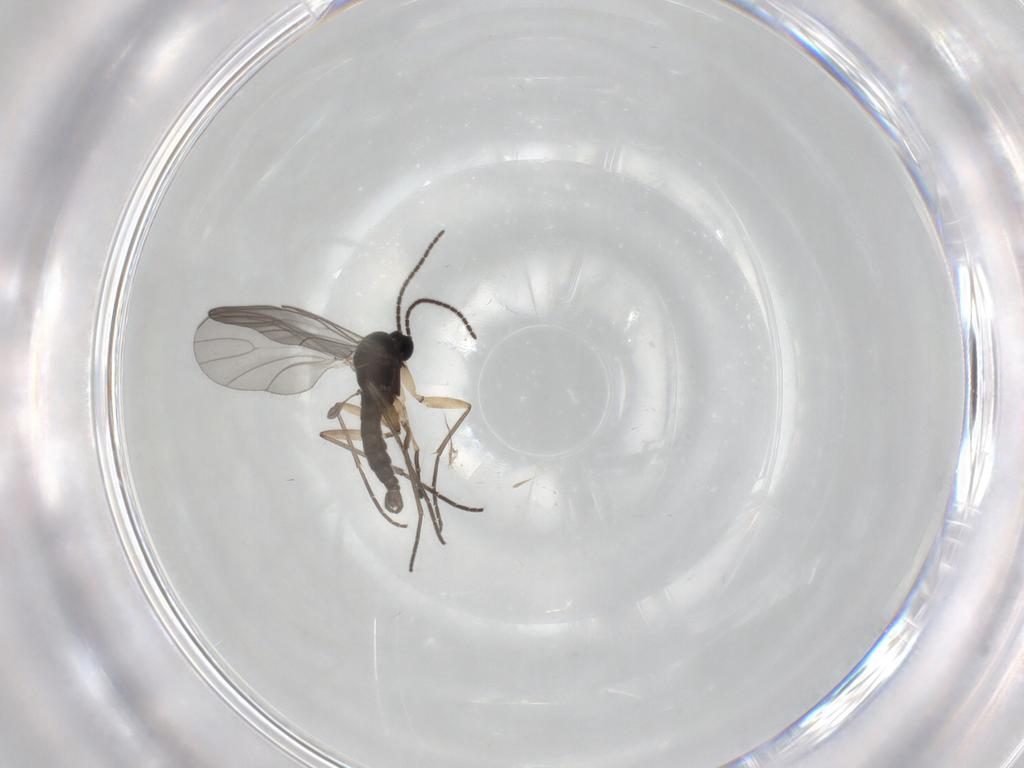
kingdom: Animalia
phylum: Arthropoda
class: Insecta
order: Diptera
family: Sciaridae
